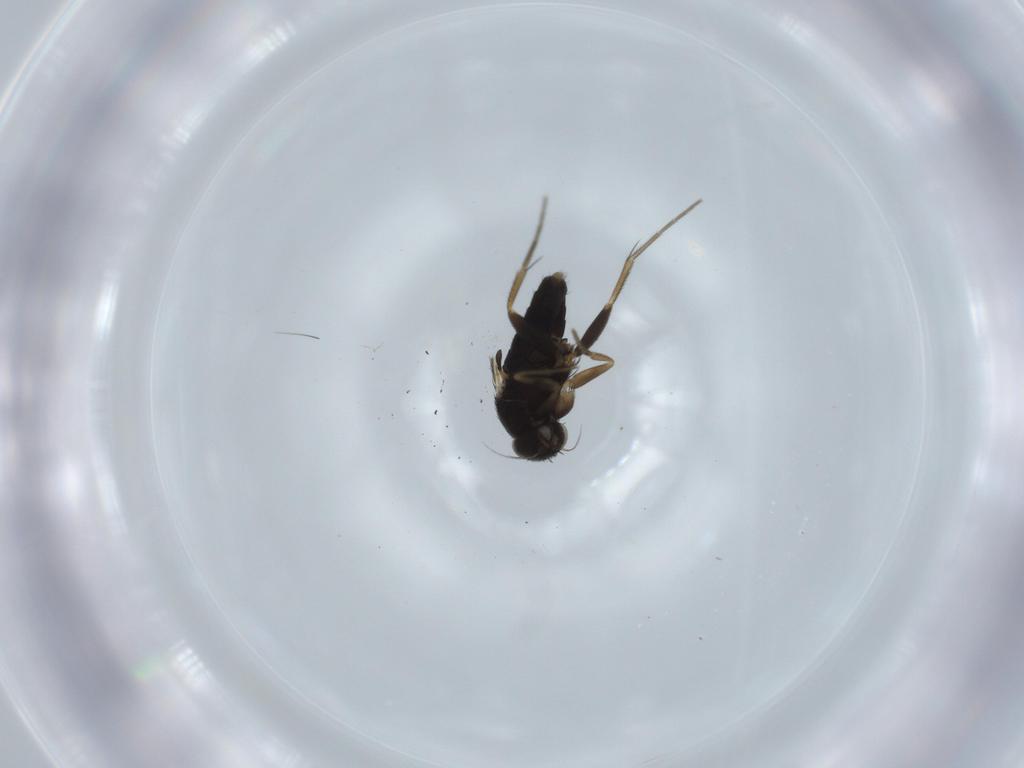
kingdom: Animalia
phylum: Arthropoda
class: Insecta
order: Diptera
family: Phoridae
